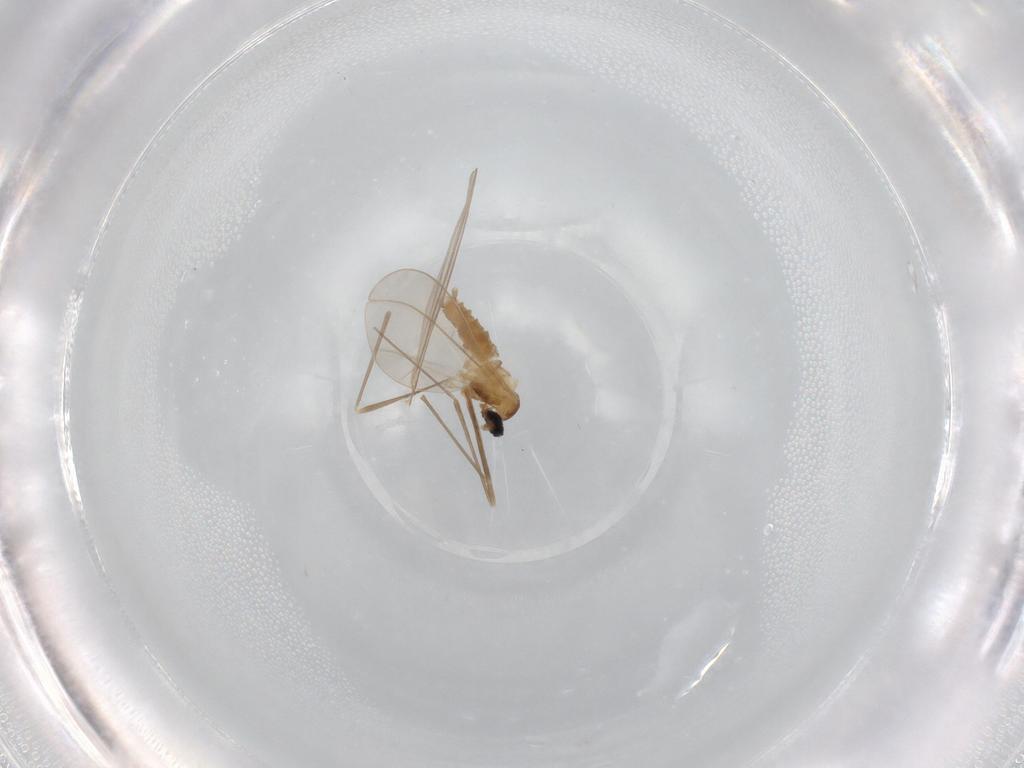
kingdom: Animalia
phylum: Arthropoda
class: Insecta
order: Diptera
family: Cecidomyiidae
